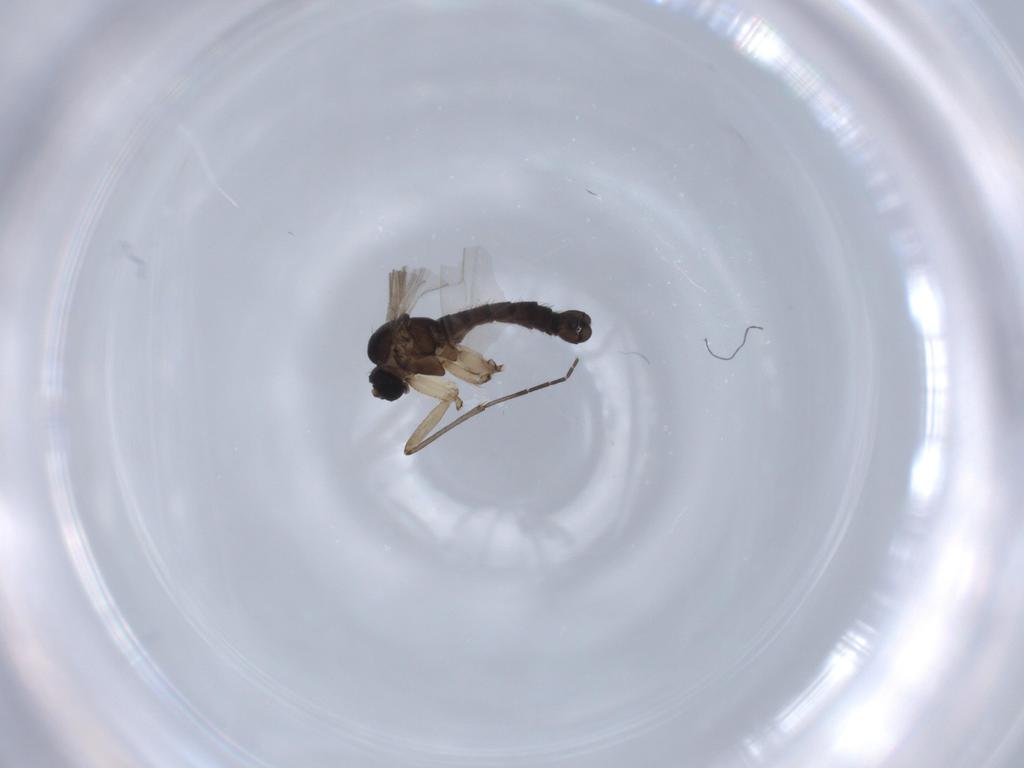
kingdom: Animalia
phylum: Arthropoda
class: Insecta
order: Diptera
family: Sciaridae
